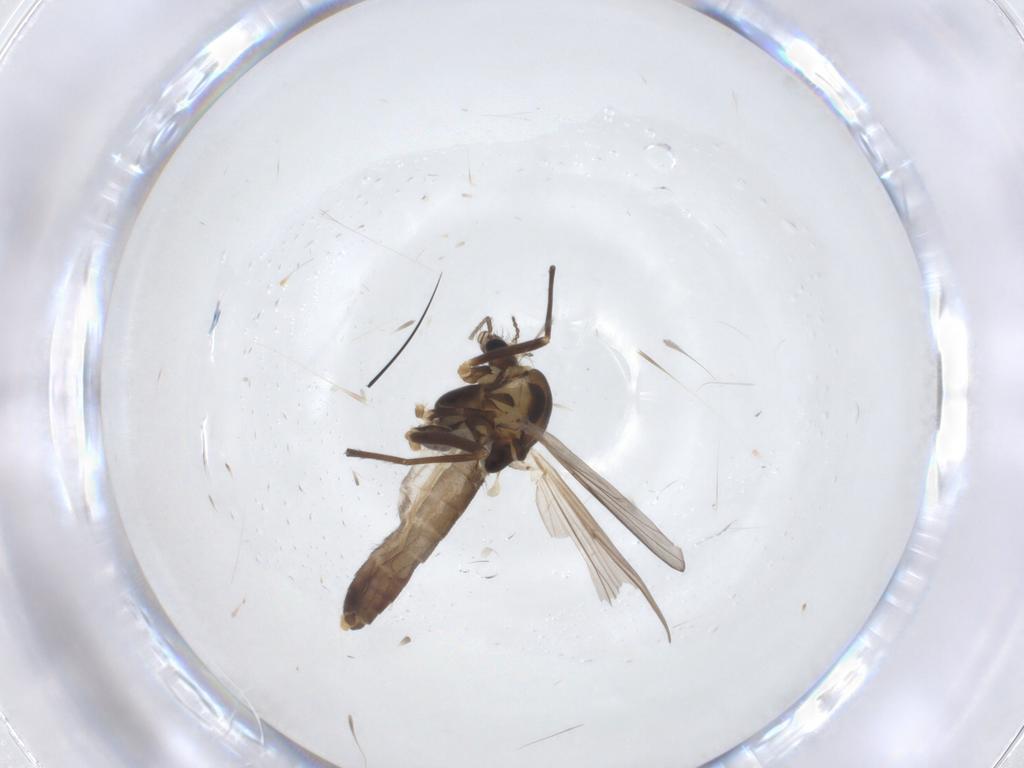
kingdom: Animalia
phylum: Arthropoda
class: Insecta
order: Diptera
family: Chironomidae
